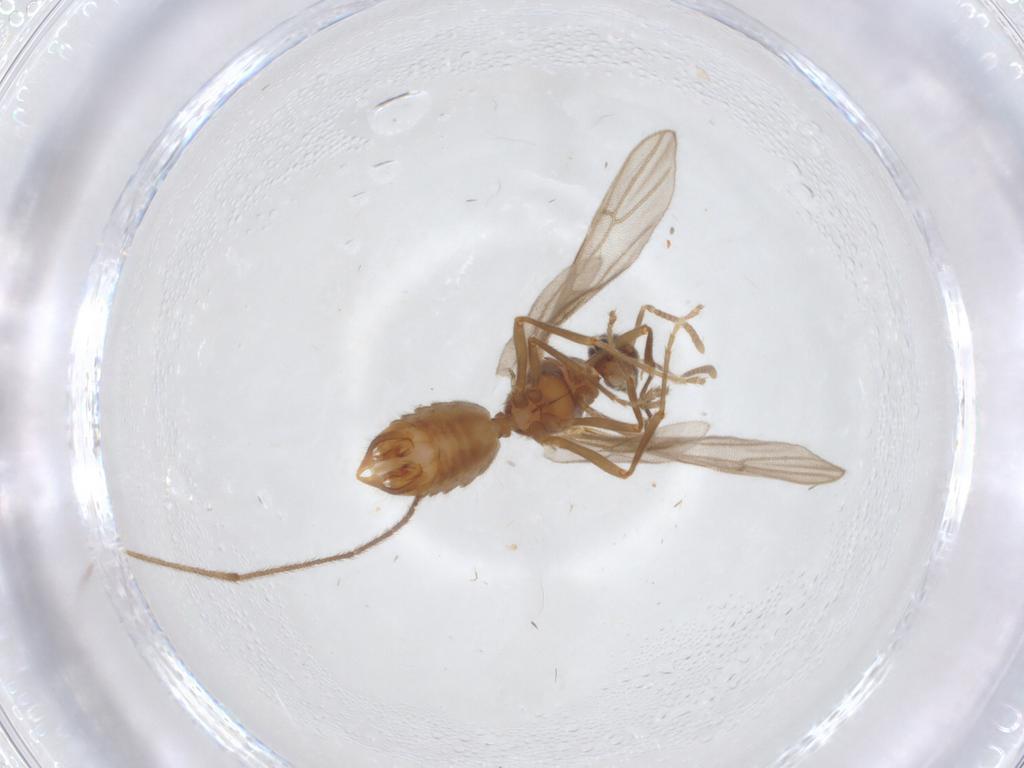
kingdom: Animalia
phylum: Arthropoda
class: Insecta
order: Hymenoptera
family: Formicidae
